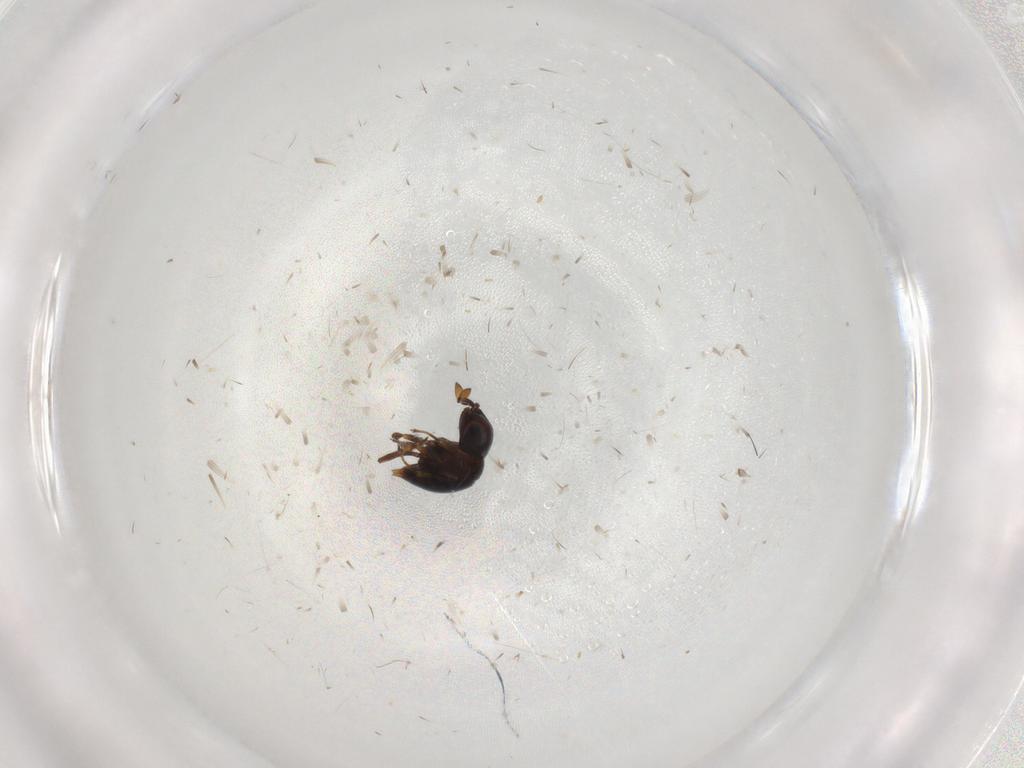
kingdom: Animalia
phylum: Arthropoda
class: Insecta
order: Hymenoptera
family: Scelionidae
